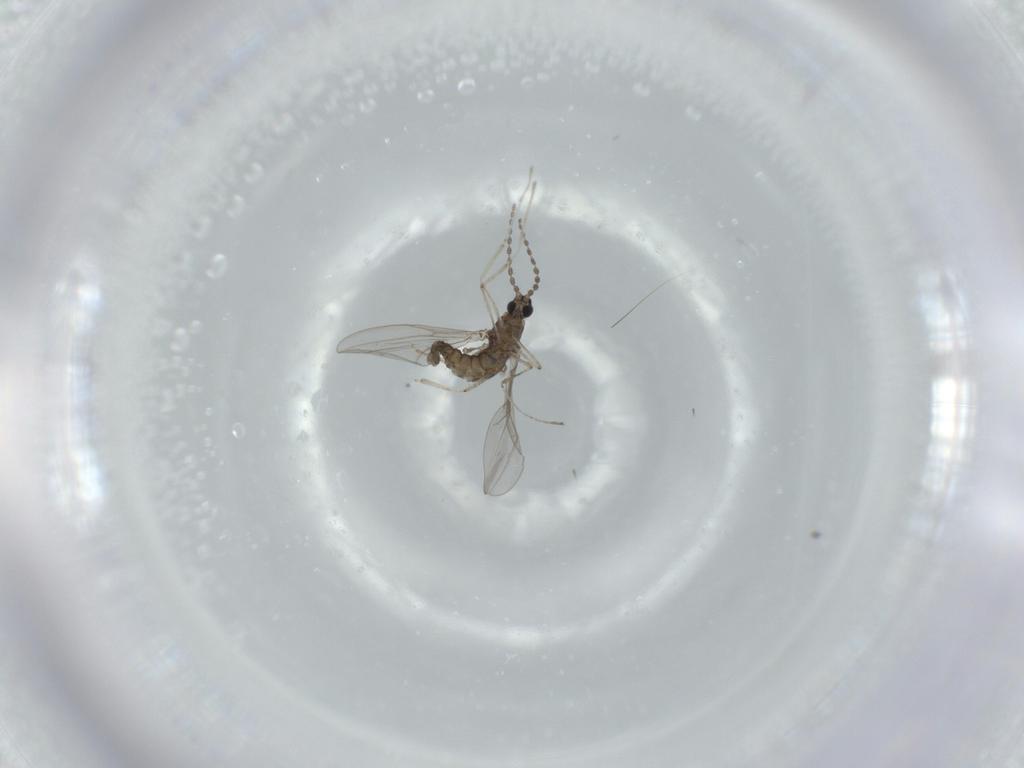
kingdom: Animalia
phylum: Arthropoda
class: Insecta
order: Diptera
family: Cecidomyiidae
